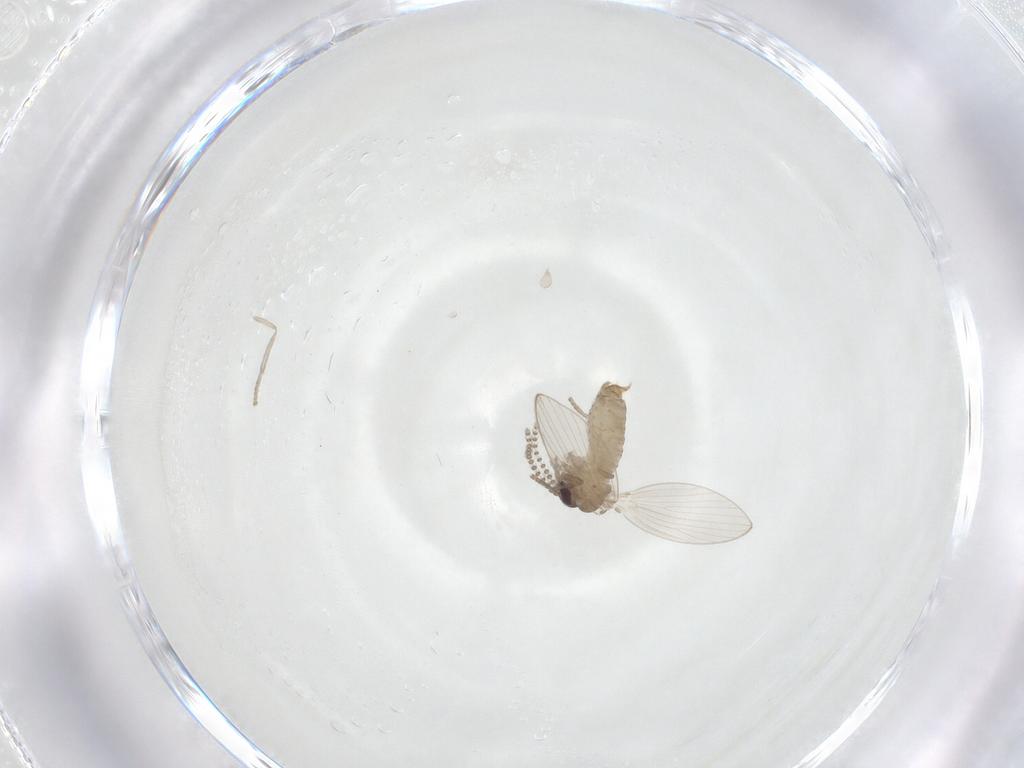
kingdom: Animalia
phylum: Arthropoda
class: Insecta
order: Diptera
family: Psychodidae
